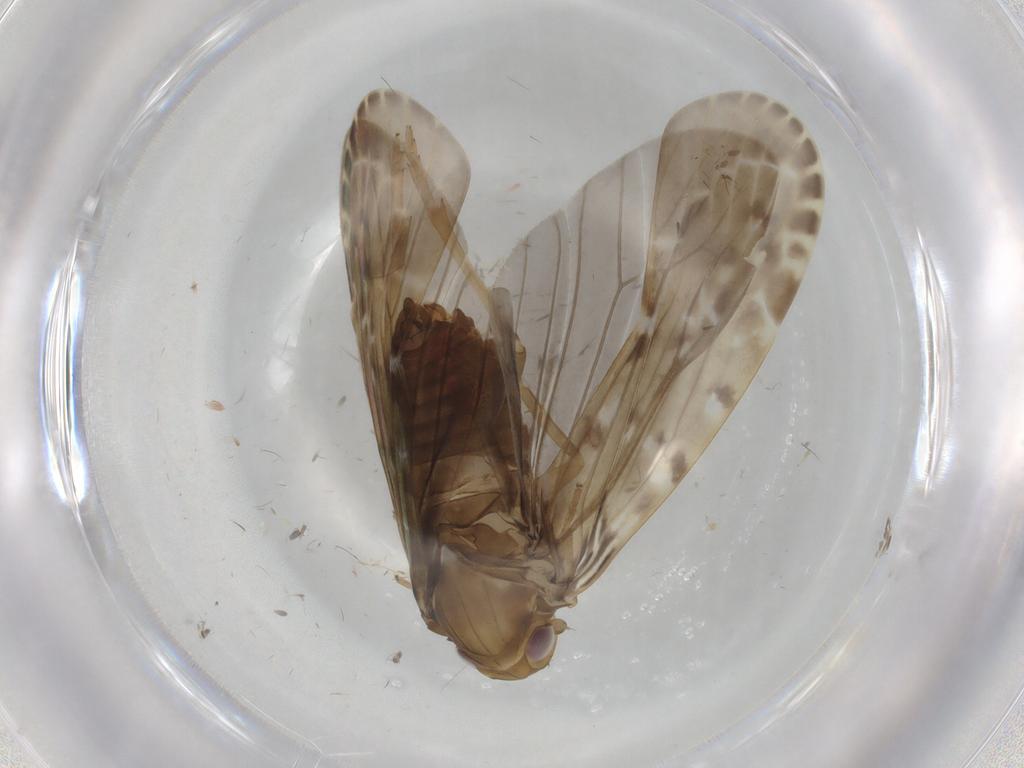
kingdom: Animalia
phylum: Arthropoda
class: Insecta
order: Hemiptera
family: Achilidae
